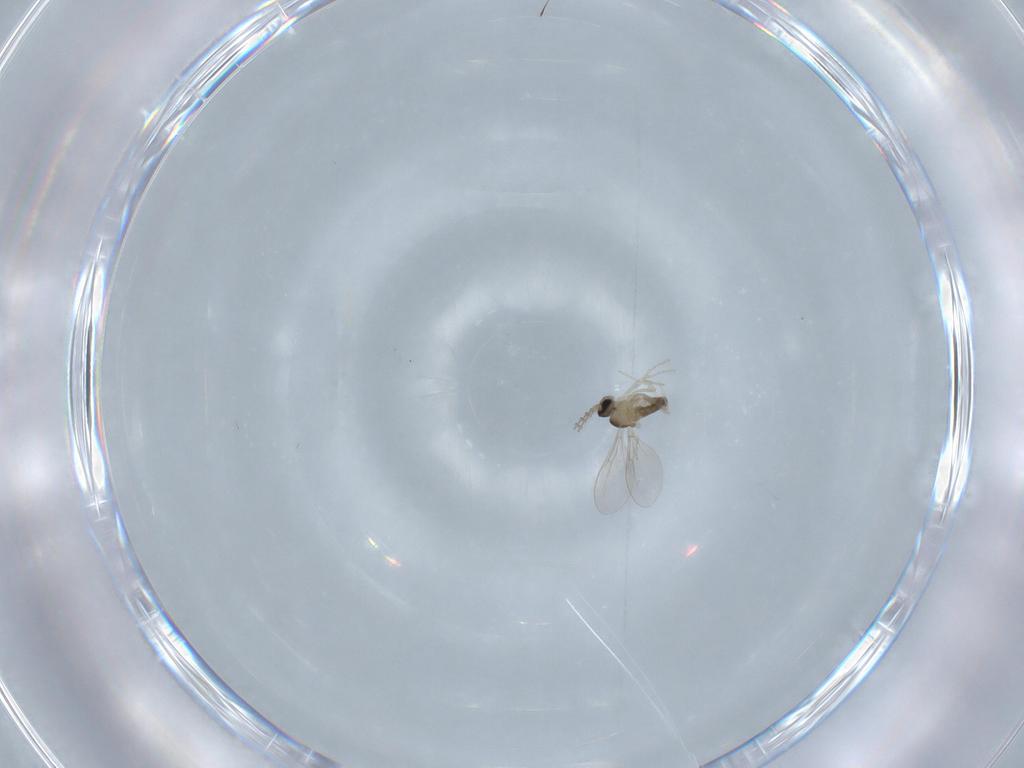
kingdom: Animalia
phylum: Arthropoda
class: Insecta
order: Diptera
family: Cecidomyiidae
